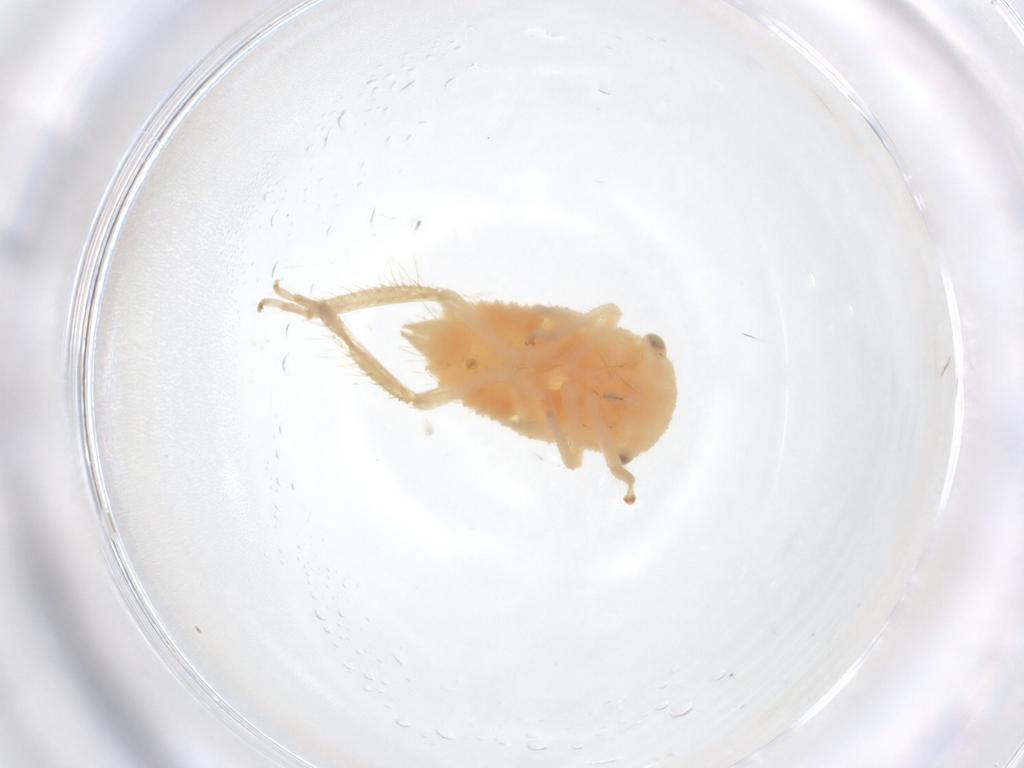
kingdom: Animalia
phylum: Arthropoda
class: Insecta
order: Hemiptera
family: Cicadellidae
